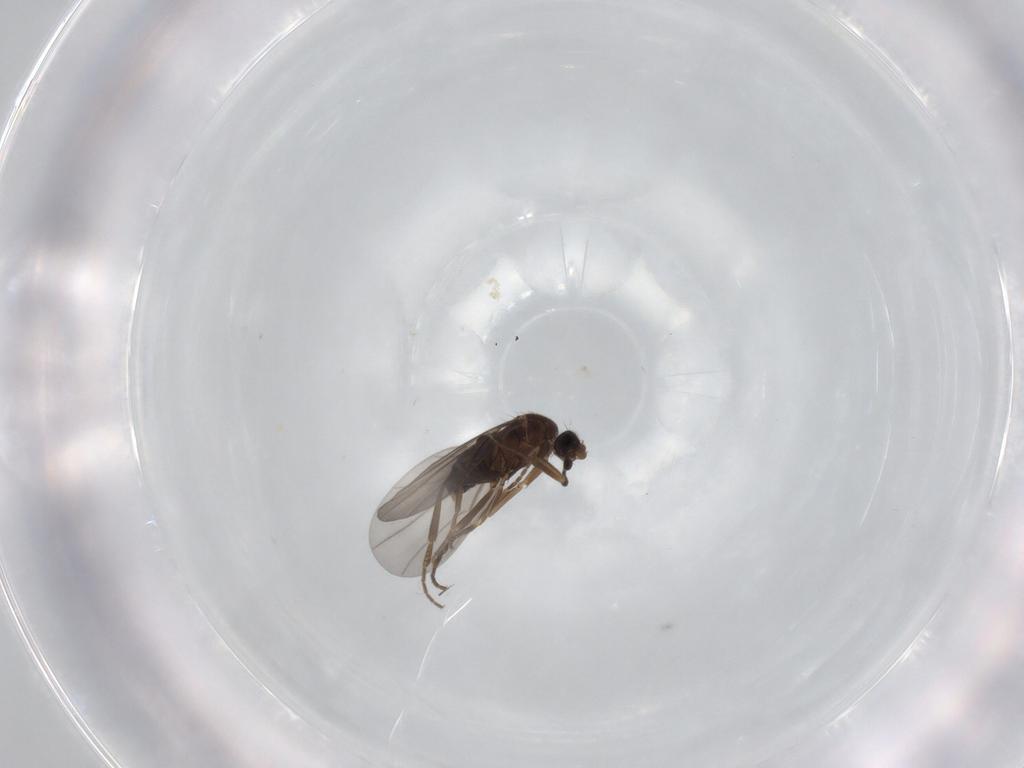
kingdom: Animalia
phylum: Arthropoda
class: Insecta
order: Diptera
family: Phoridae
